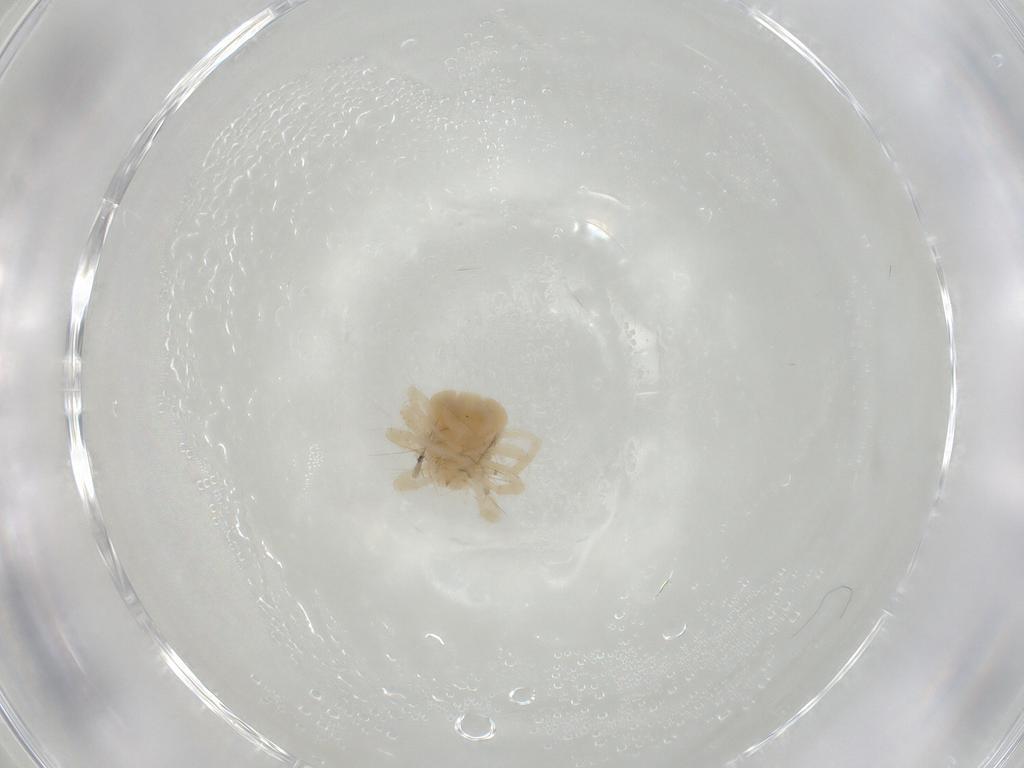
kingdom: Animalia
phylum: Arthropoda
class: Arachnida
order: Trombidiformes
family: Anystidae
